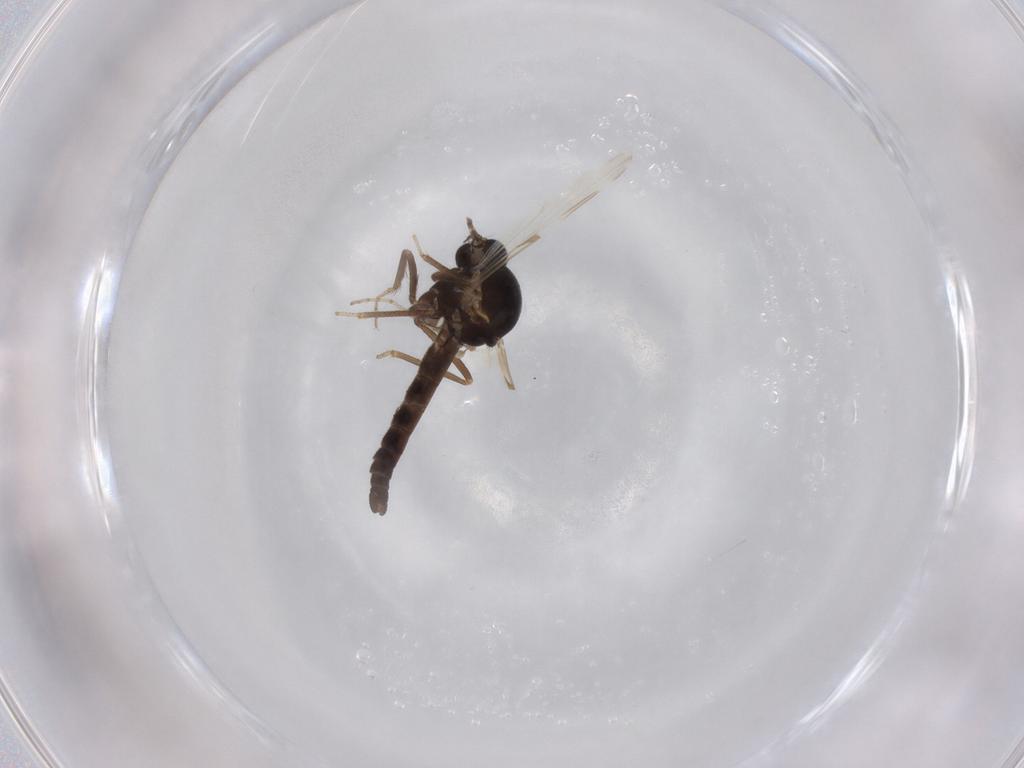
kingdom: Animalia
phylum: Arthropoda
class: Insecta
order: Diptera
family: Ceratopogonidae
